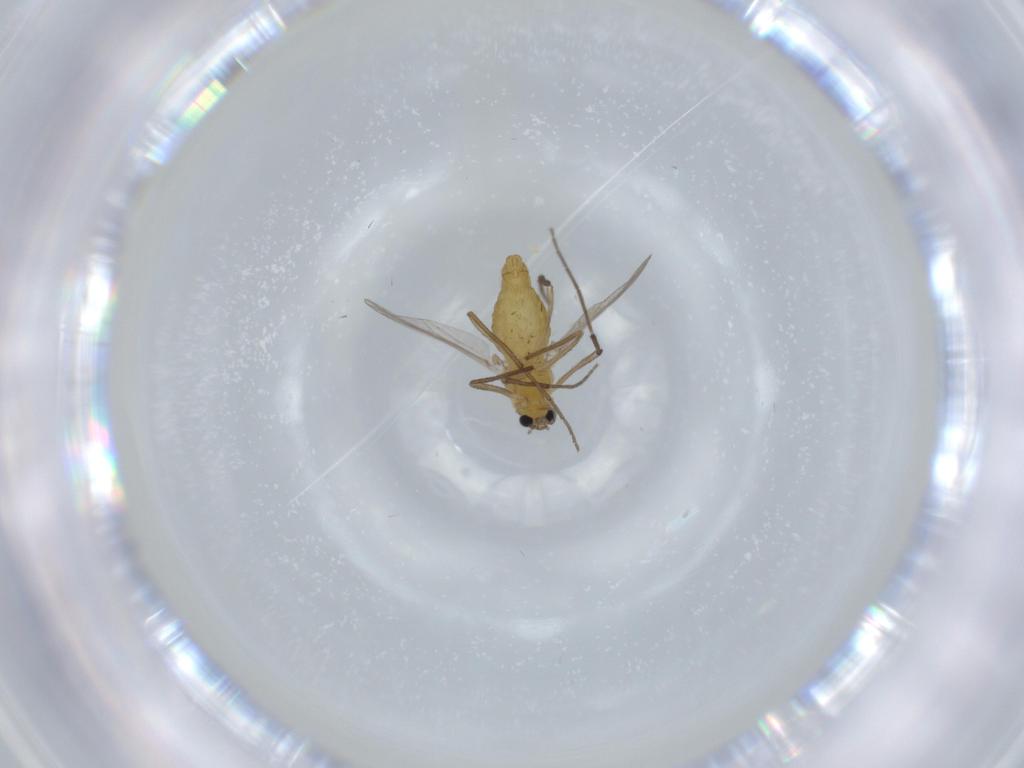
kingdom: Animalia
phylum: Arthropoda
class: Insecta
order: Diptera
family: Chironomidae
